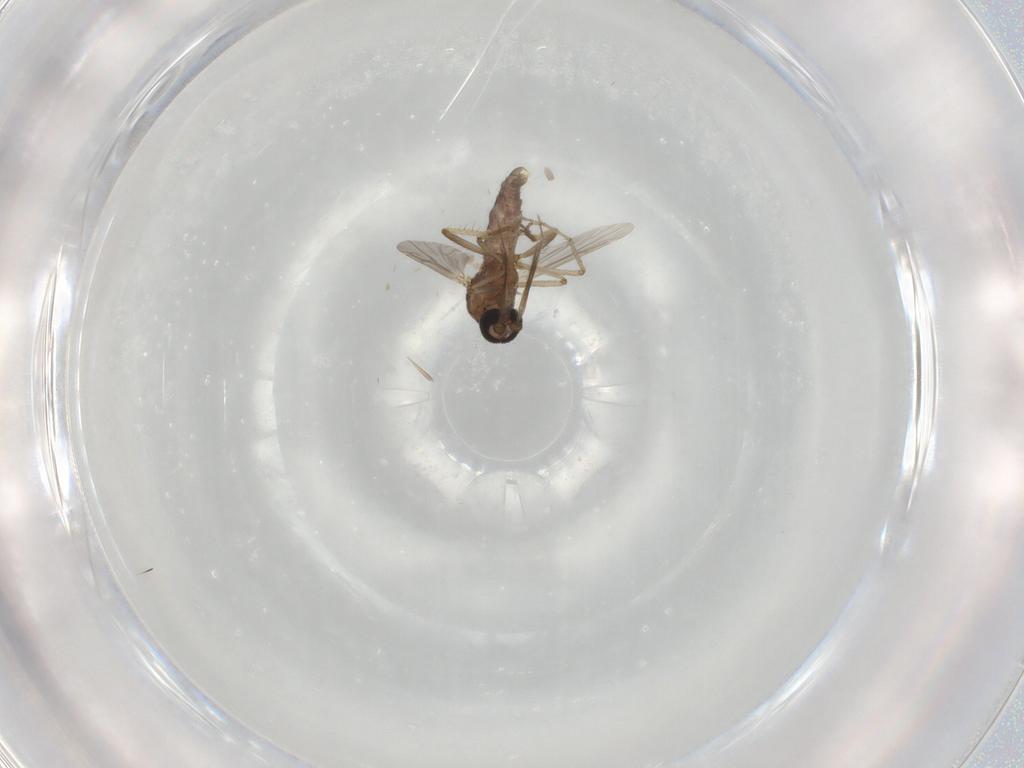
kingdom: Animalia
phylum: Arthropoda
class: Insecta
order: Diptera
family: Ceratopogonidae
